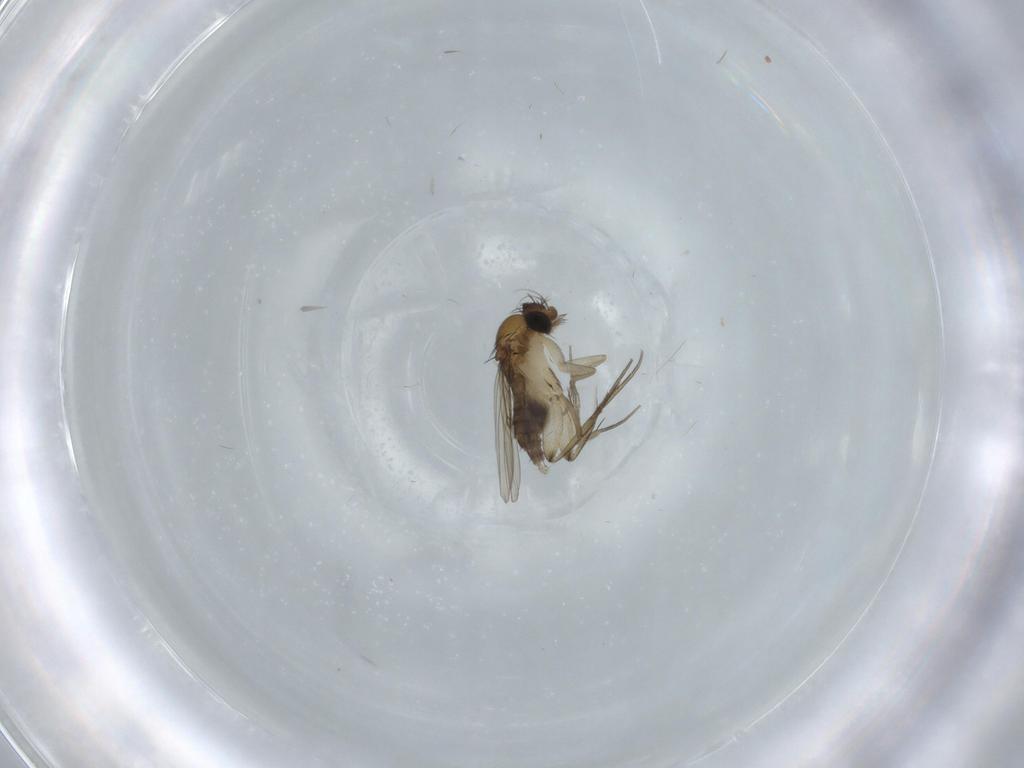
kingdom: Animalia
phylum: Arthropoda
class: Insecta
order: Diptera
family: Phoridae
